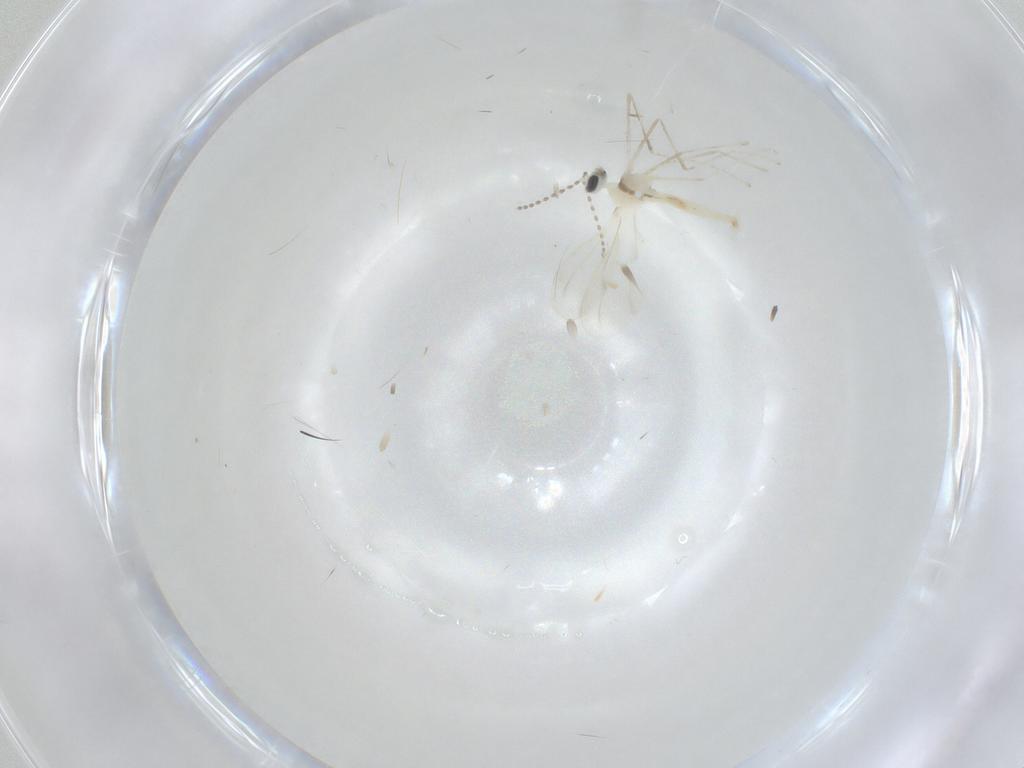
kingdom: Animalia
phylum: Arthropoda
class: Insecta
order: Diptera
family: Cecidomyiidae
